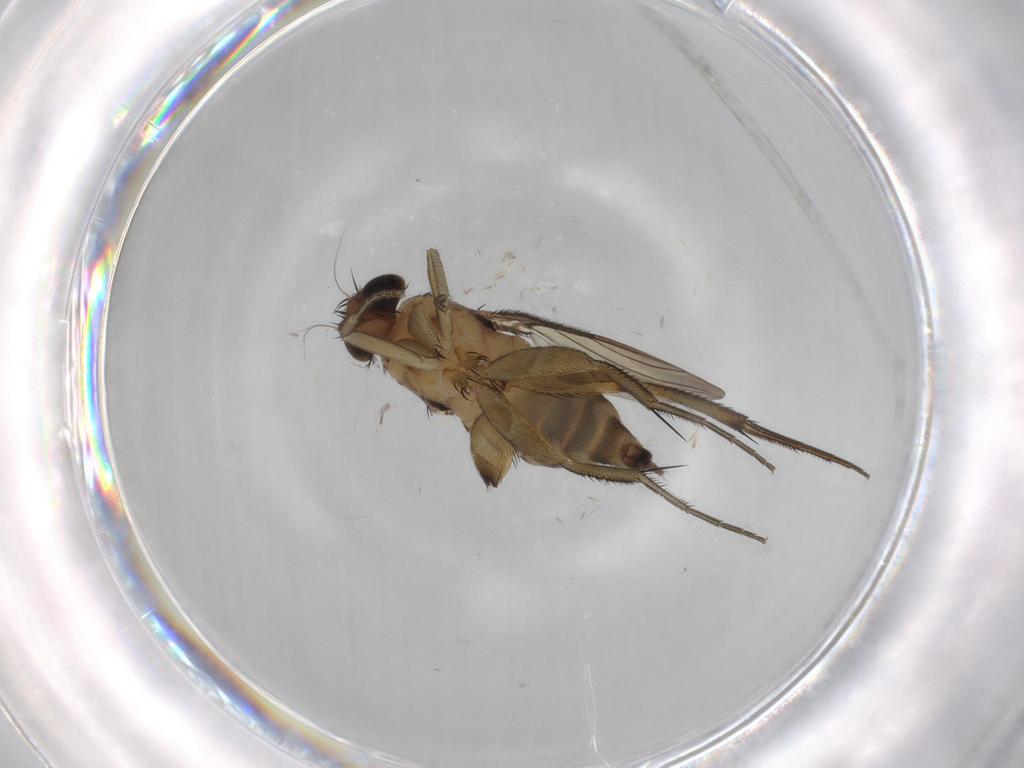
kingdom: Animalia
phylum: Arthropoda
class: Insecta
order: Diptera
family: Phoridae
